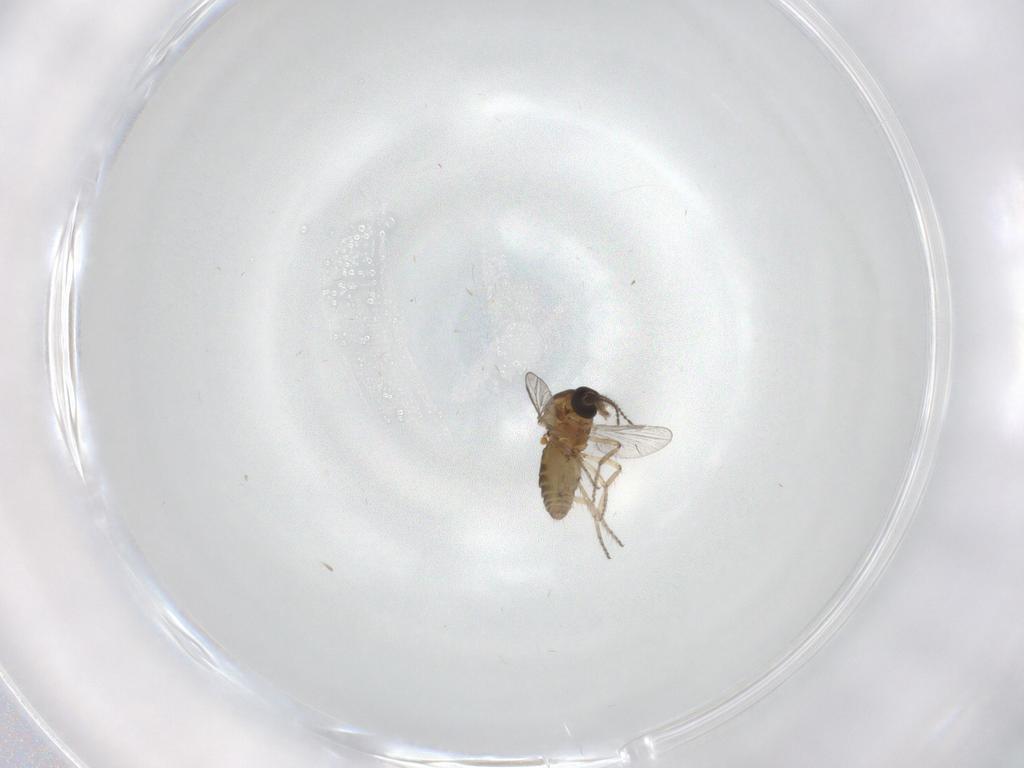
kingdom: Animalia
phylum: Arthropoda
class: Insecta
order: Diptera
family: Ceratopogonidae
